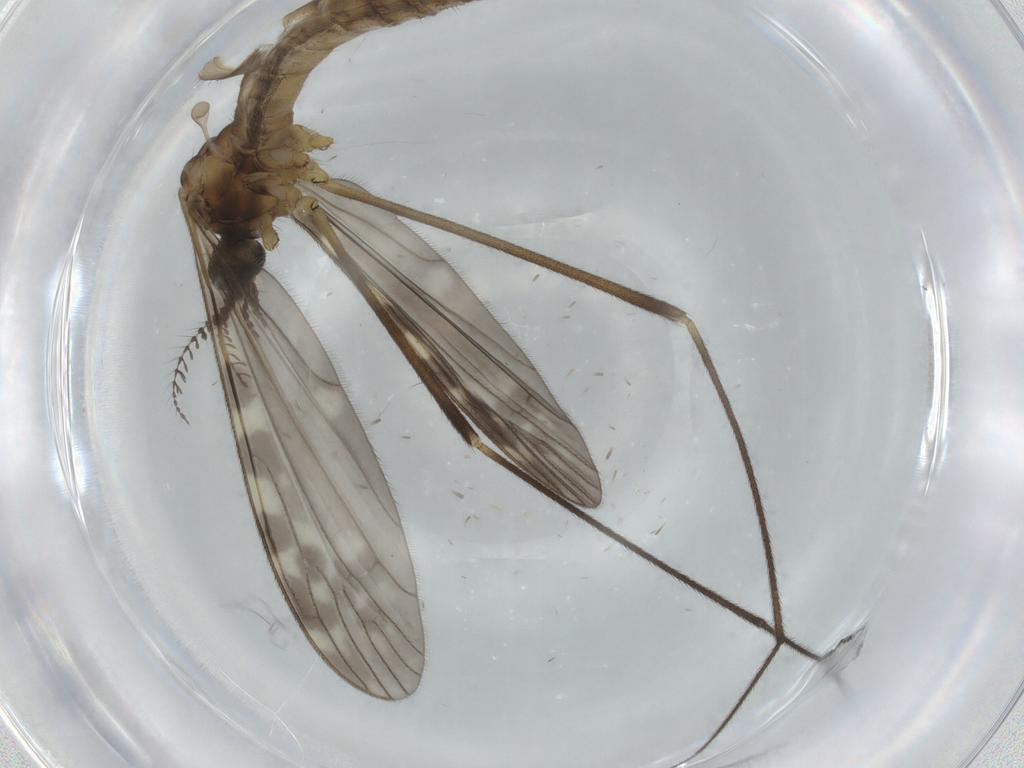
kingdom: Animalia
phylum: Arthropoda
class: Insecta
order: Diptera
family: Limoniidae
